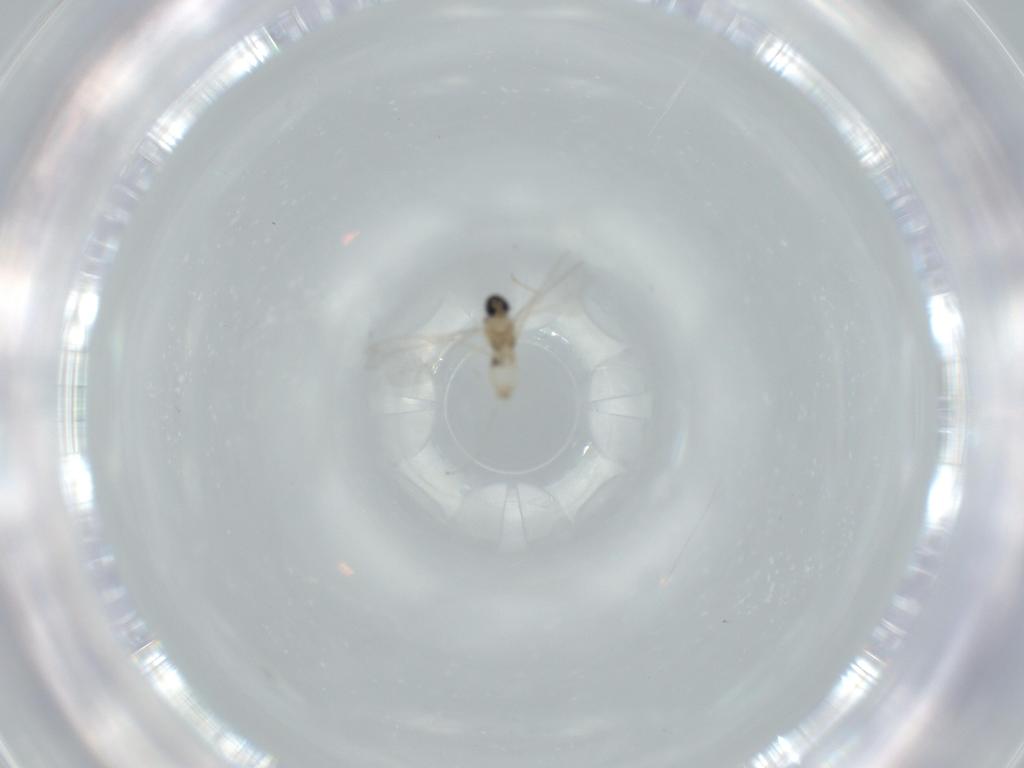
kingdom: Animalia
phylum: Arthropoda
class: Insecta
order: Diptera
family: Cecidomyiidae
